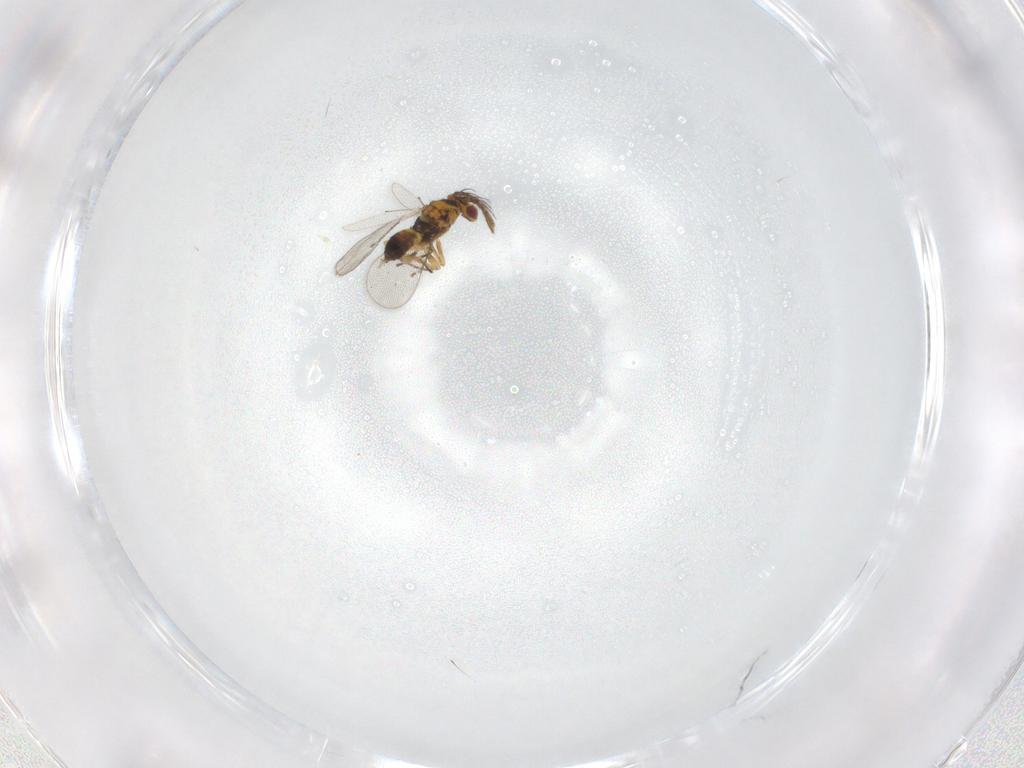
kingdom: Animalia
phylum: Arthropoda
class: Insecta
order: Hymenoptera
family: Eulophidae
